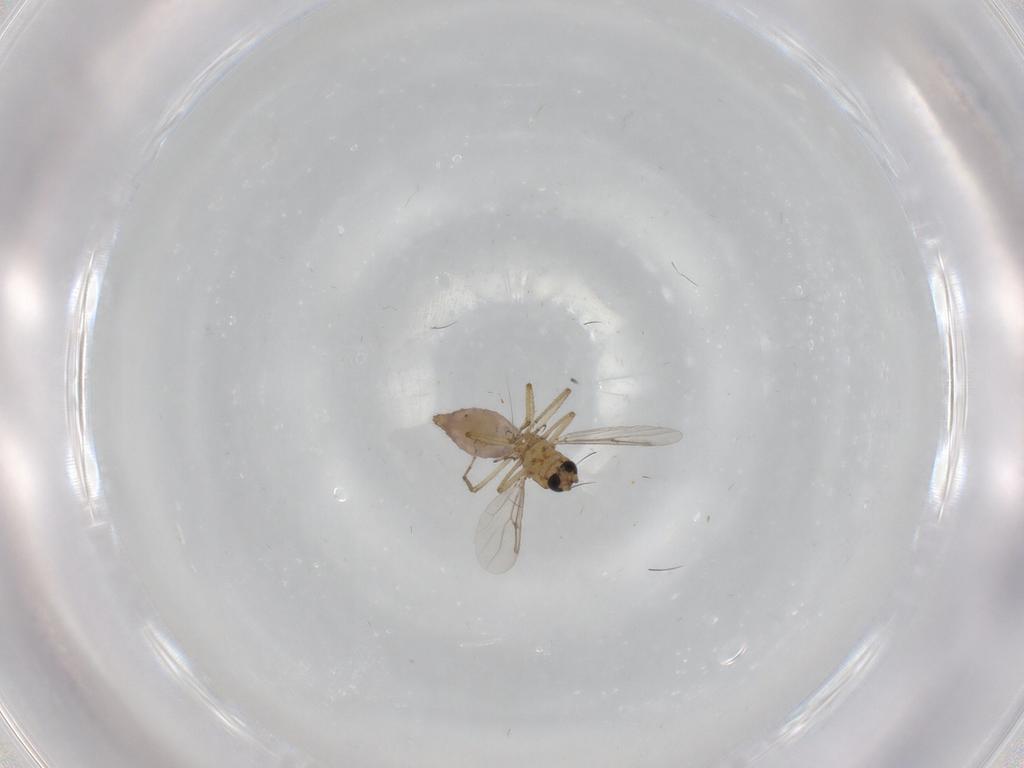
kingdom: Animalia
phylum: Arthropoda
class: Insecta
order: Diptera
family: Ceratopogonidae
